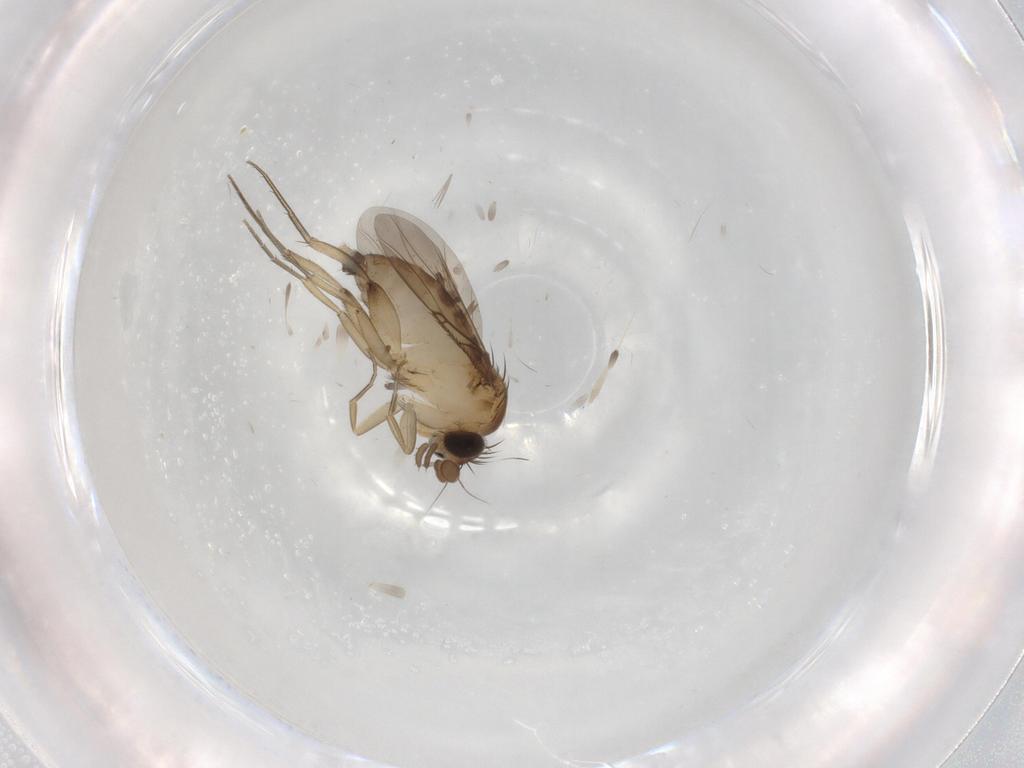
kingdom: Animalia
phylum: Arthropoda
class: Insecta
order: Diptera
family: Phoridae
